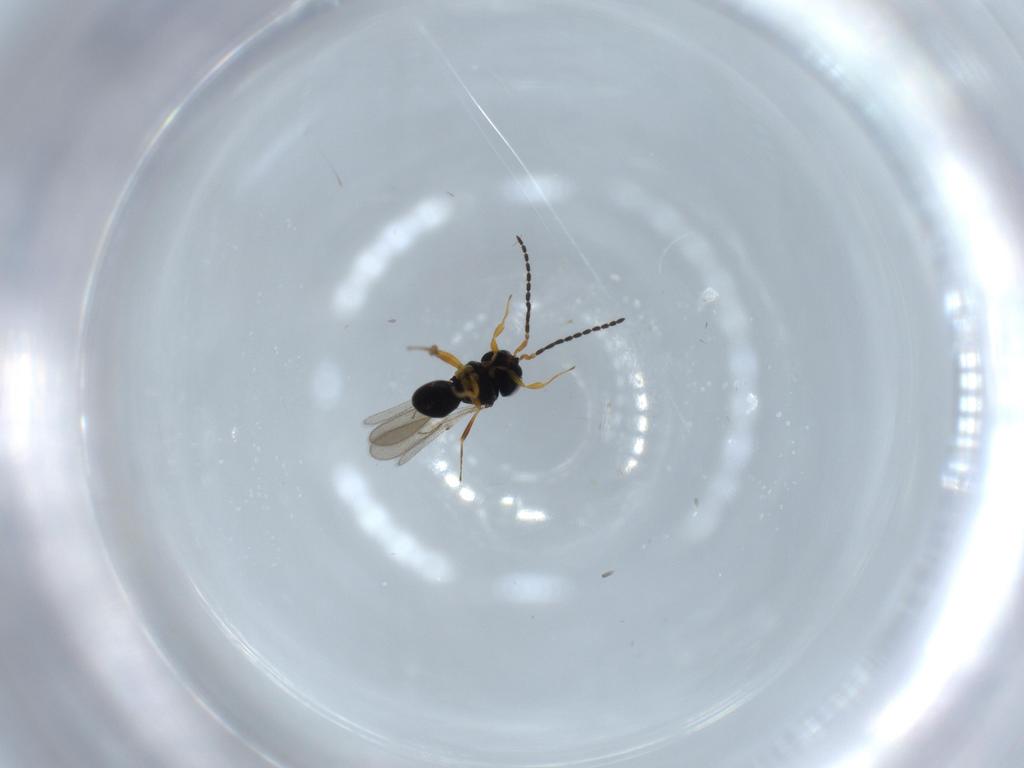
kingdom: Animalia
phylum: Arthropoda
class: Insecta
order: Hymenoptera
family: Scelionidae
